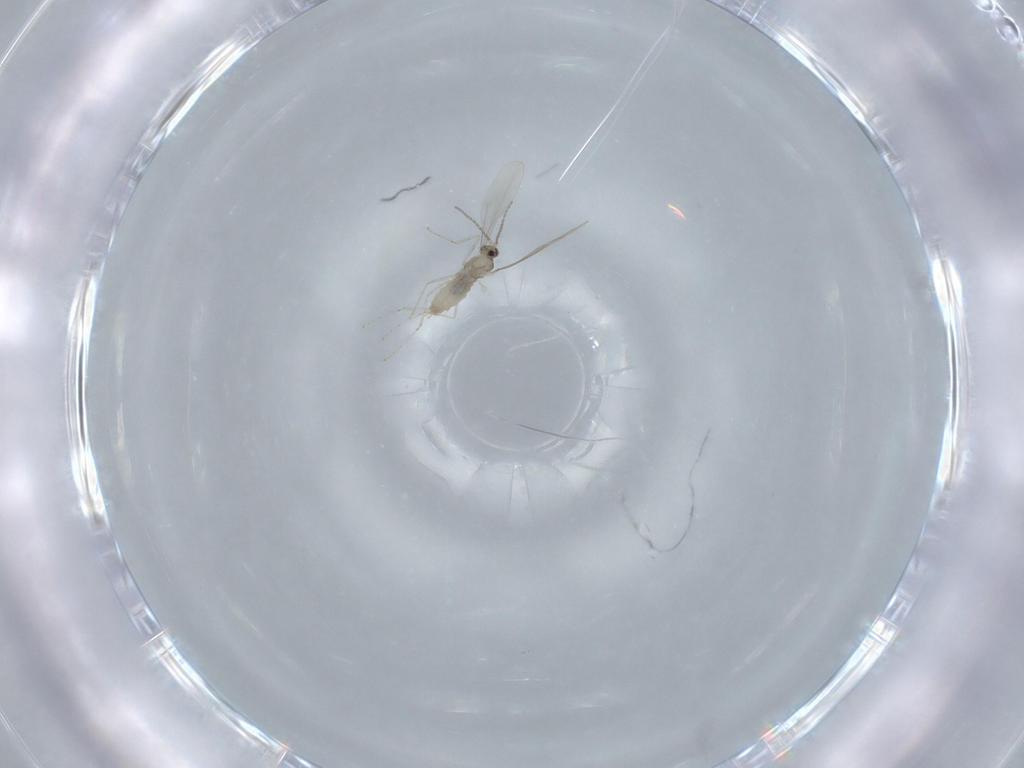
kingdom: Animalia
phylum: Arthropoda
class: Insecta
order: Diptera
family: Cecidomyiidae
